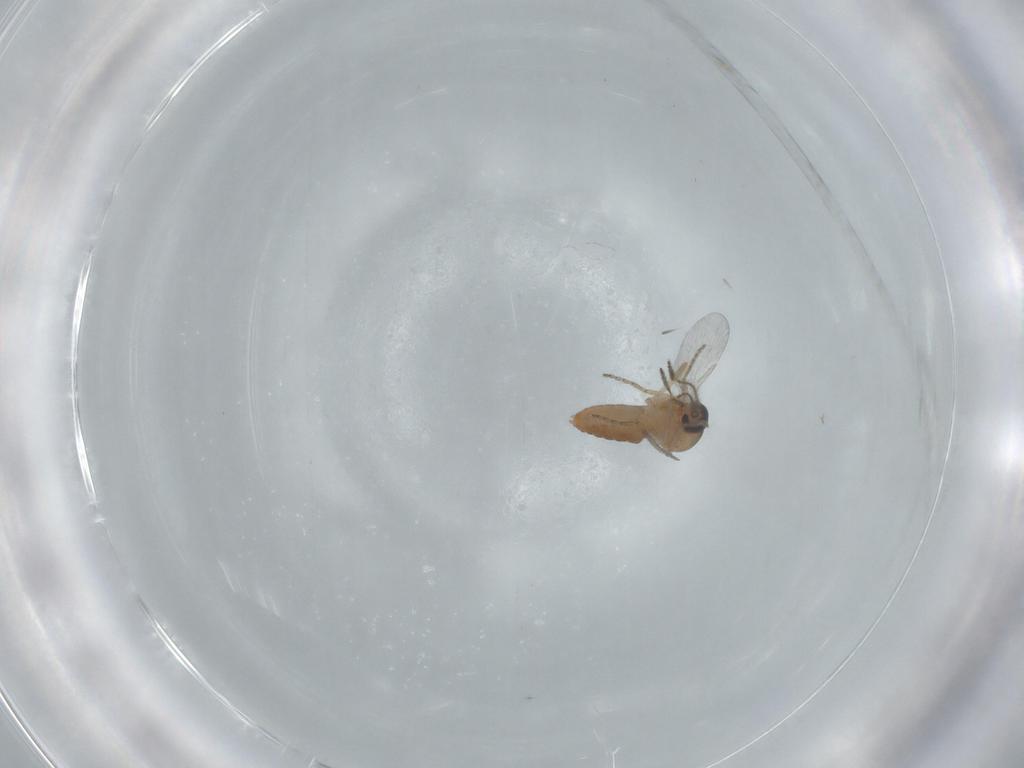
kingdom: Animalia
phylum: Arthropoda
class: Insecta
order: Diptera
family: Ceratopogonidae
